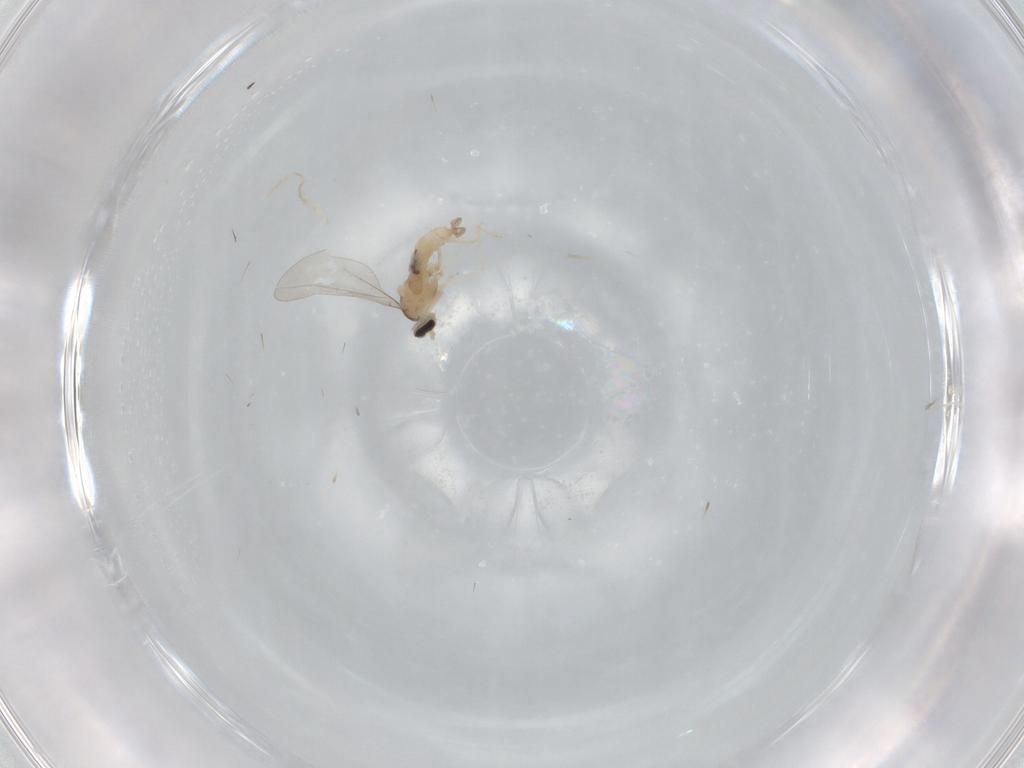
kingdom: Animalia
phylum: Arthropoda
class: Insecta
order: Diptera
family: Cecidomyiidae
